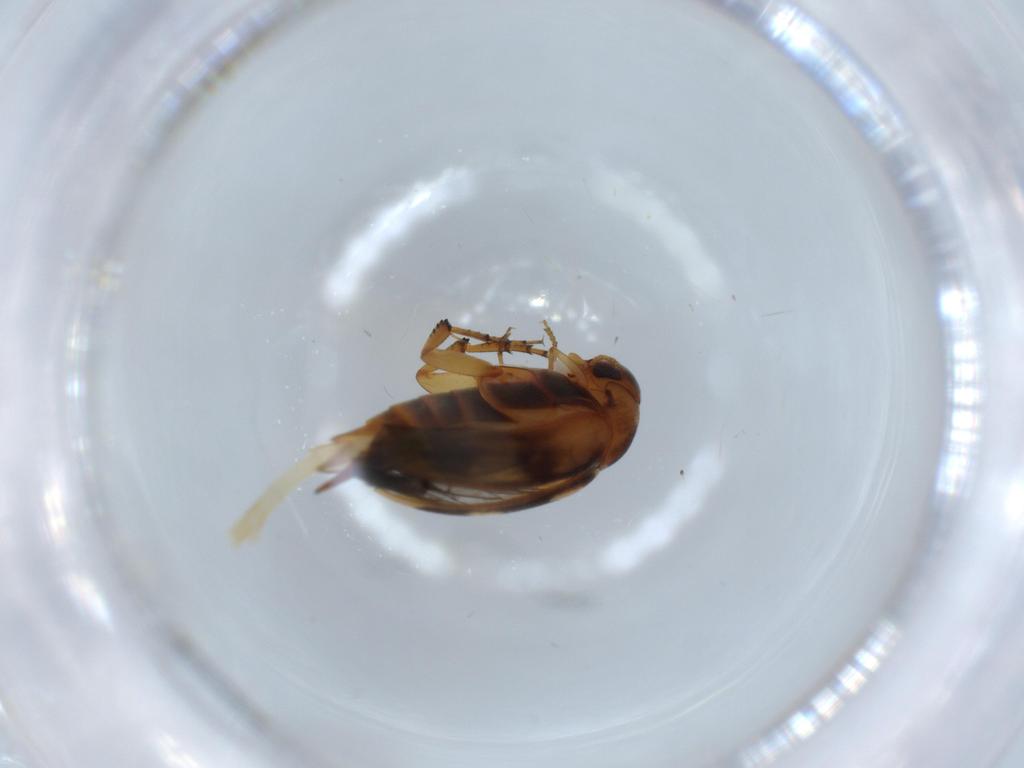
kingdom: Animalia
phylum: Arthropoda
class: Insecta
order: Coleoptera
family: Mordellidae
